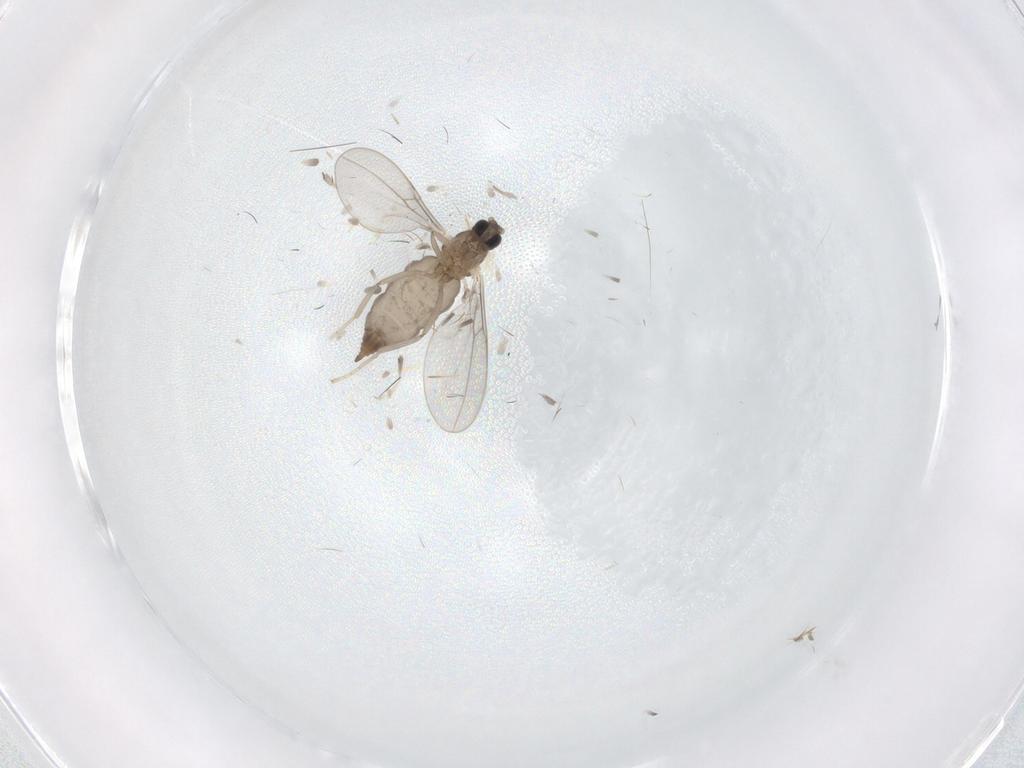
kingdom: Animalia
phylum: Arthropoda
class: Insecta
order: Diptera
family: Cecidomyiidae
